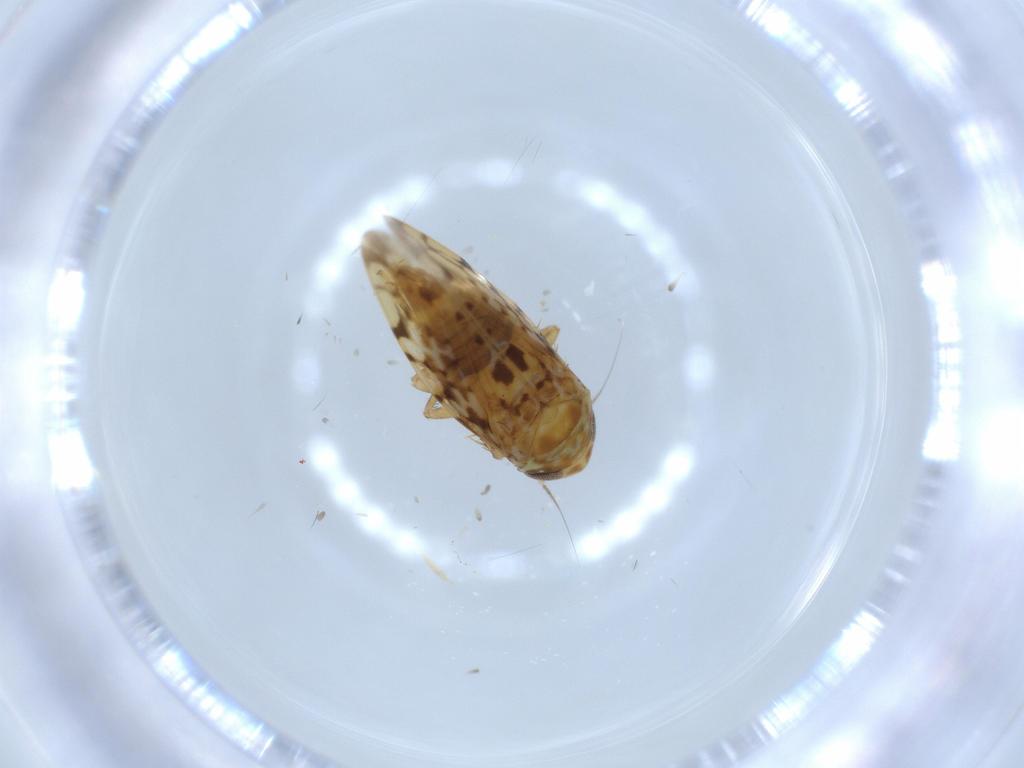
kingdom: Animalia
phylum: Arthropoda
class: Insecta
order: Hemiptera
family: Cicadellidae
